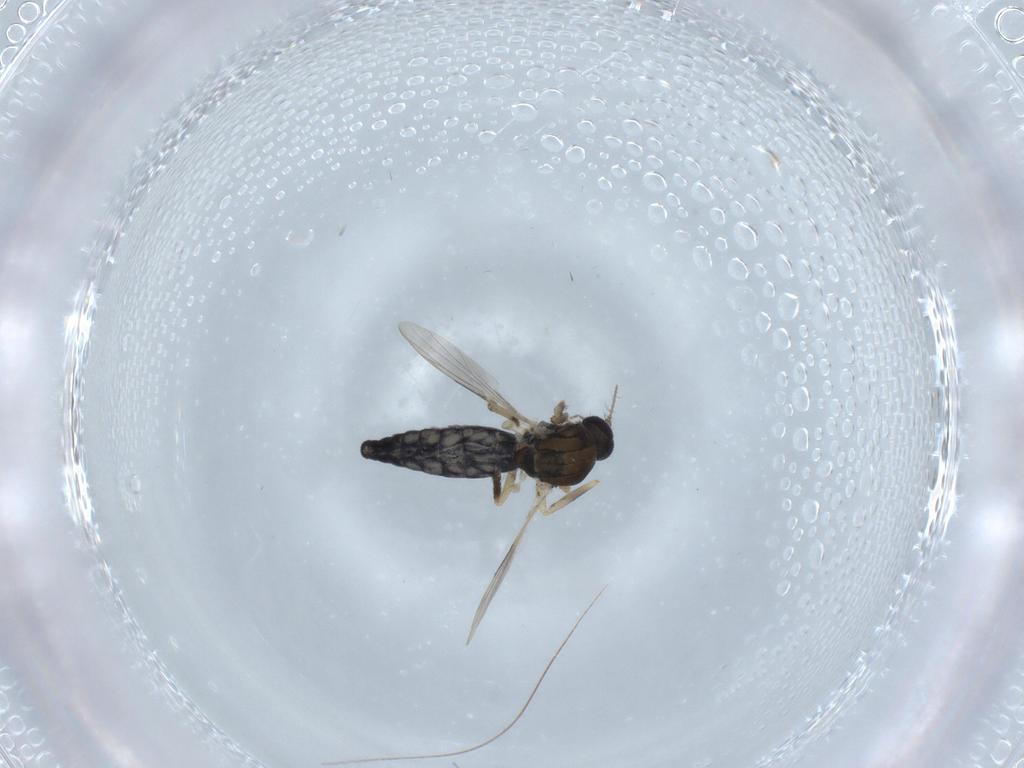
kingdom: Animalia
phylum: Arthropoda
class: Insecta
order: Diptera
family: Ceratopogonidae
